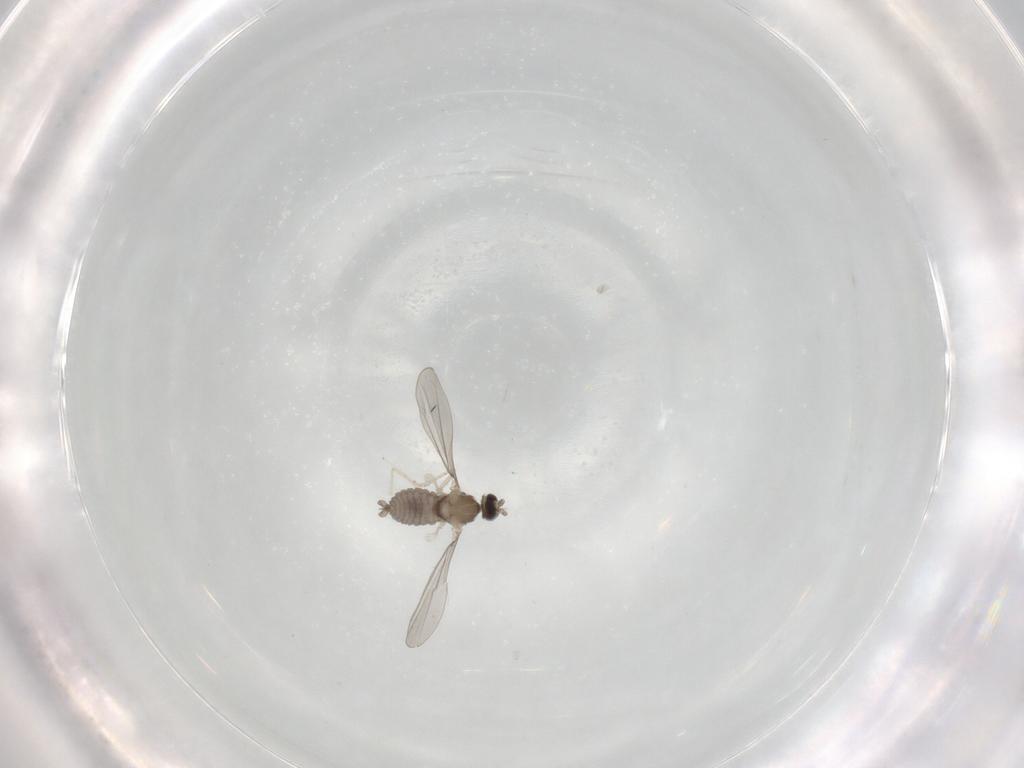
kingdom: Animalia
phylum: Arthropoda
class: Insecta
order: Diptera
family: Cecidomyiidae
